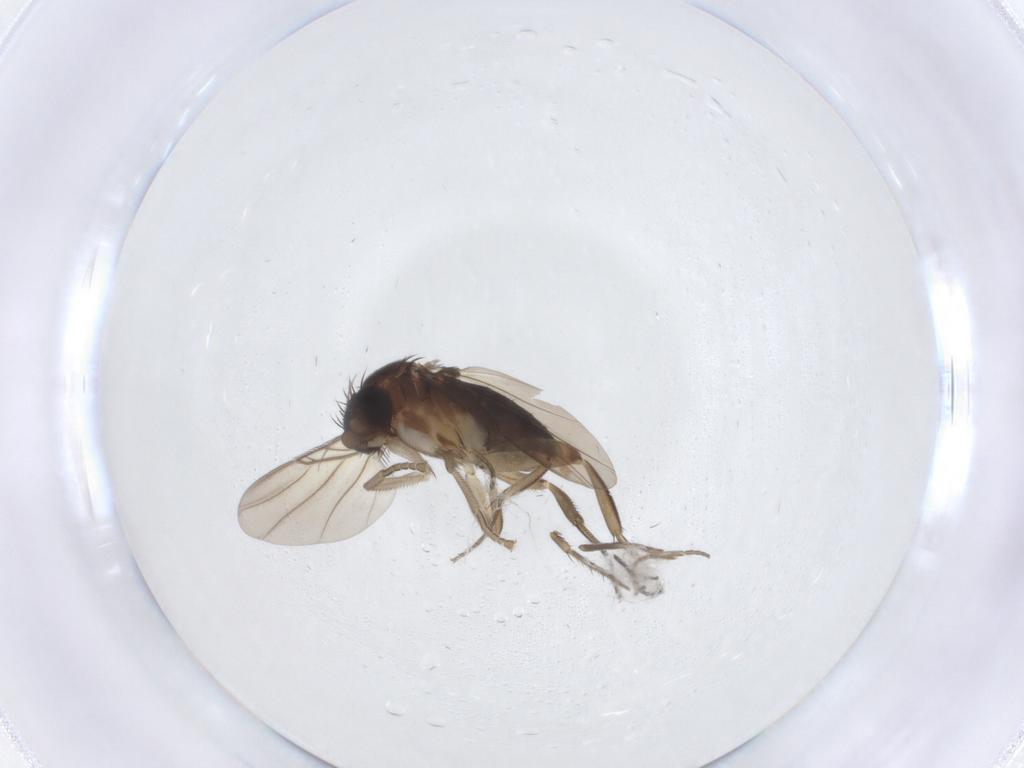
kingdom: Animalia
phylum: Arthropoda
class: Insecta
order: Diptera
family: Phoridae
